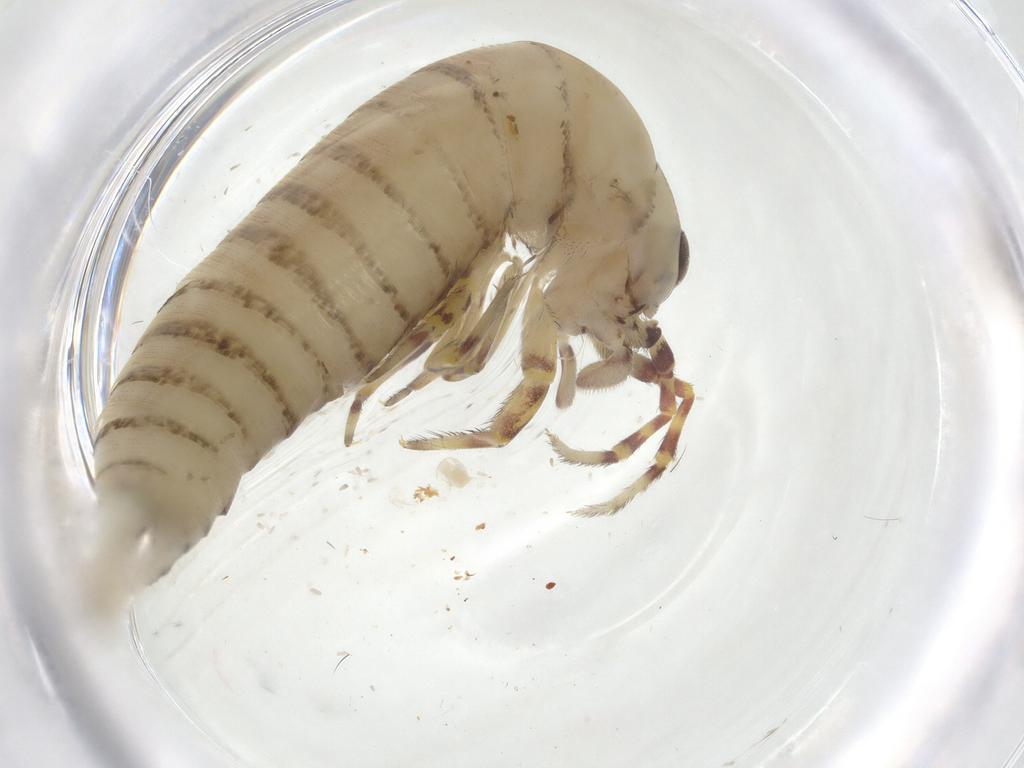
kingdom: Animalia
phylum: Arthropoda
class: Insecta
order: Archaeognatha
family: Meinertellidae
